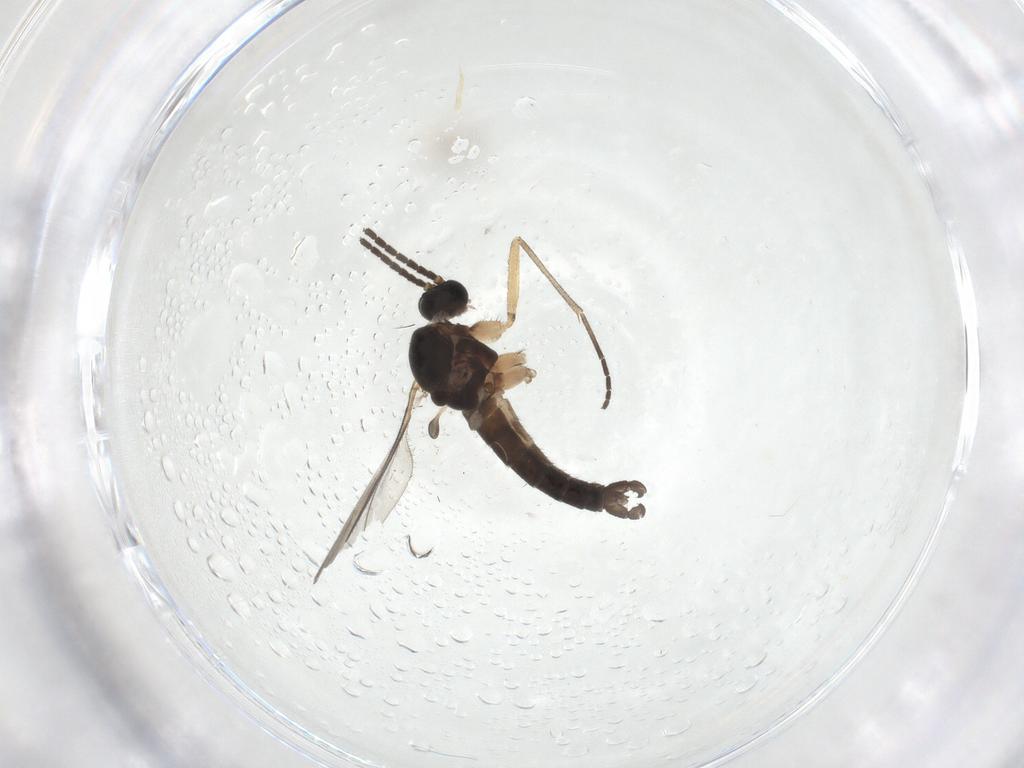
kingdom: Animalia
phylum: Arthropoda
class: Insecta
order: Diptera
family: Sciaridae
